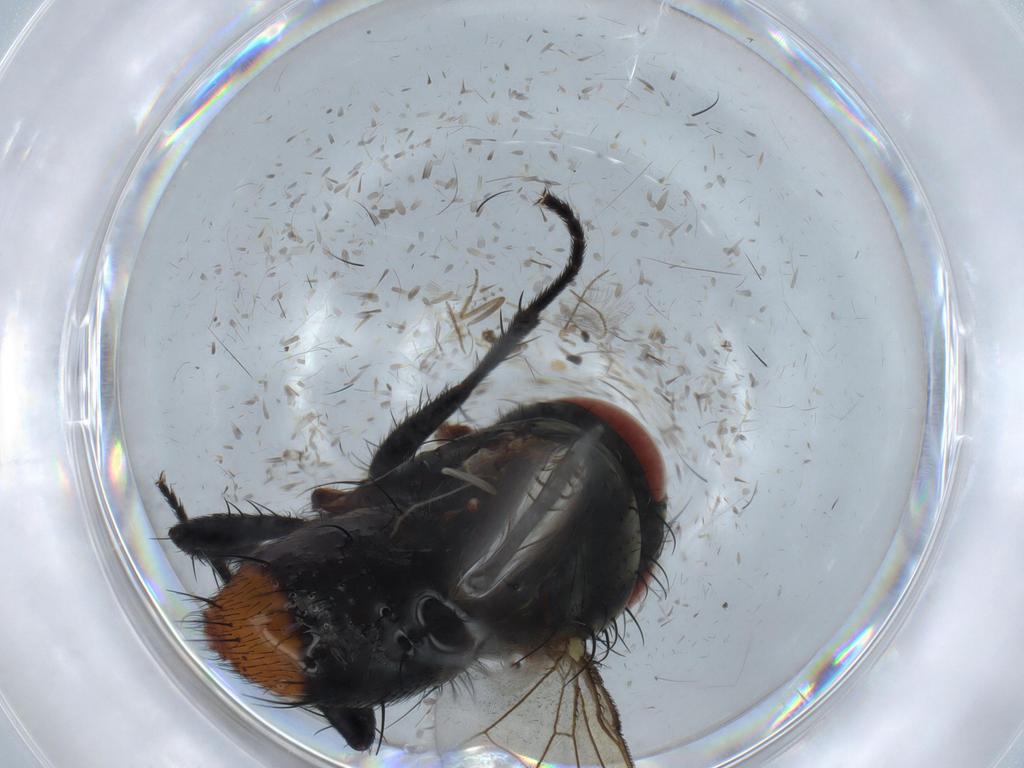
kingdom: Animalia
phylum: Arthropoda
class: Insecta
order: Diptera
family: Sarcophagidae
